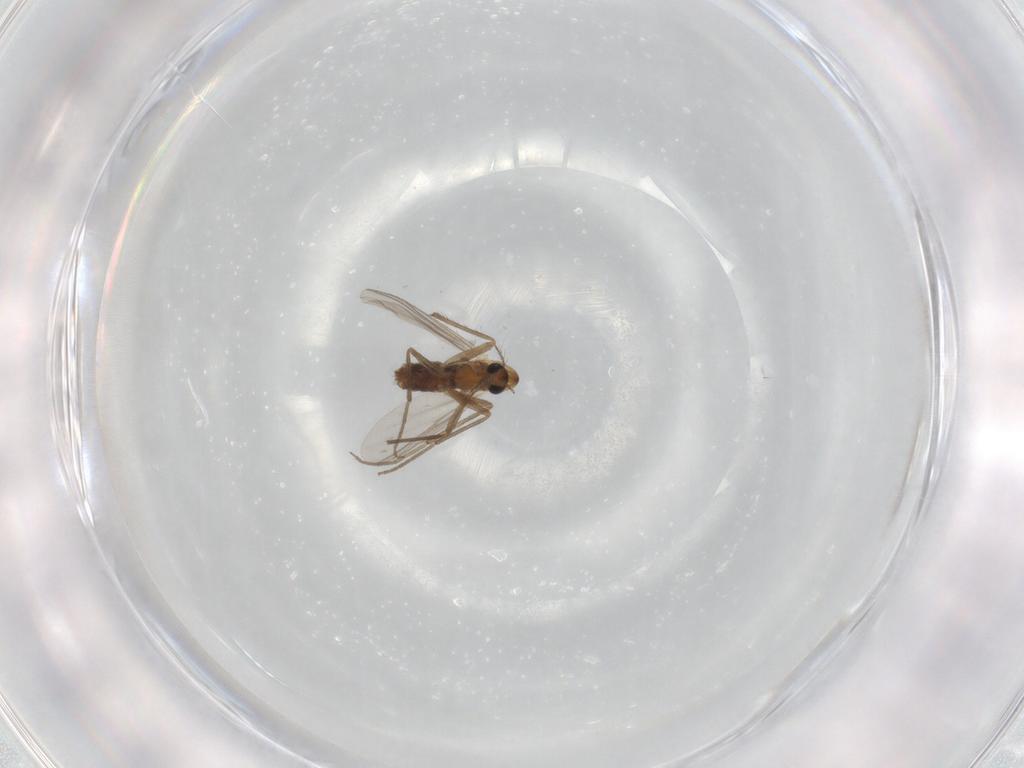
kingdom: Animalia
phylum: Arthropoda
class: Insecta
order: Diptera
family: Chironomidae
